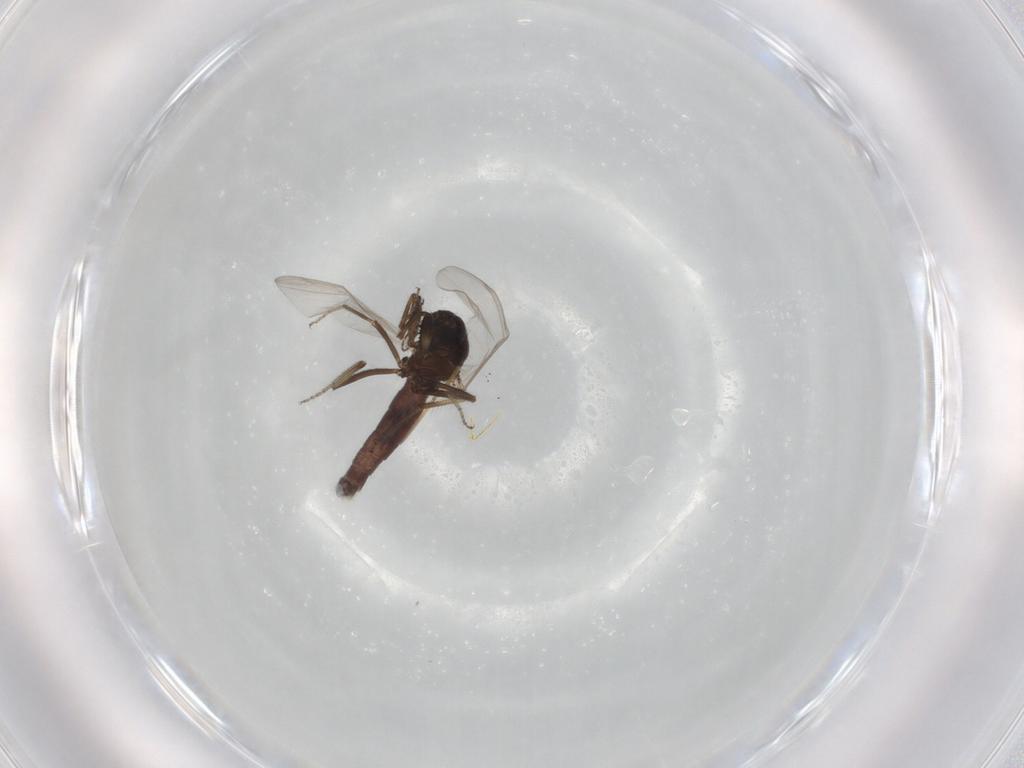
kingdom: Animalia
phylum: Arthropoda
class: Insecta
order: Diptera
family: Ceratopogonidae
